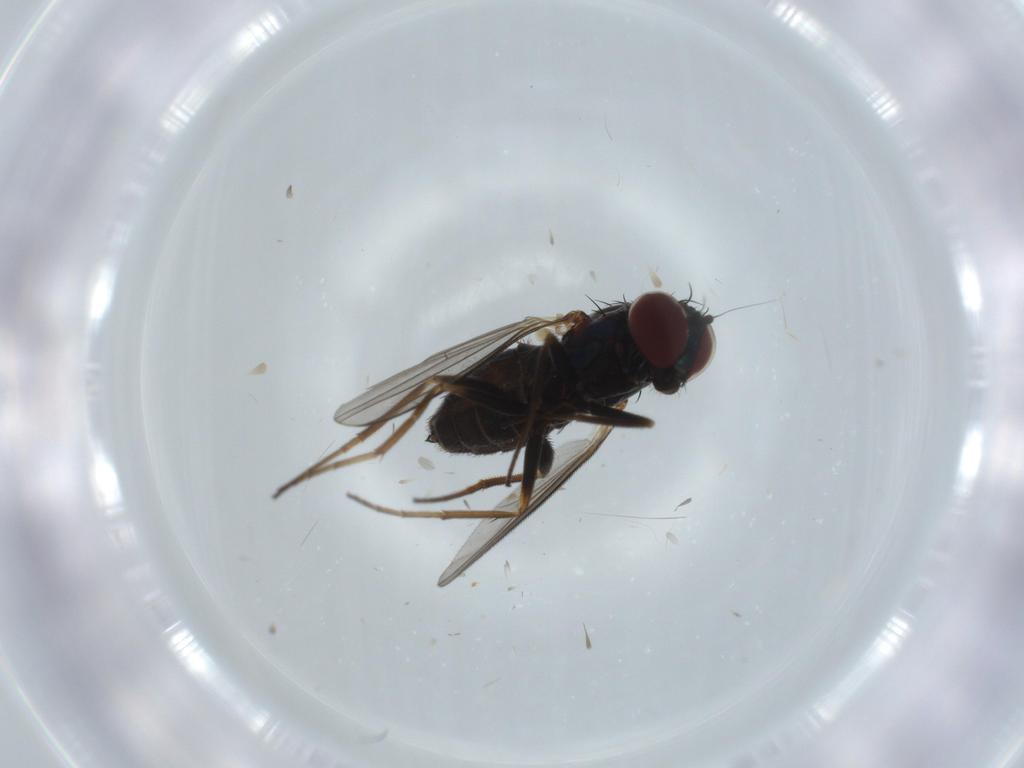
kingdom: Animalia
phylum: Arthropoda
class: Insecta
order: Diptera
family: Dolichopodidae
